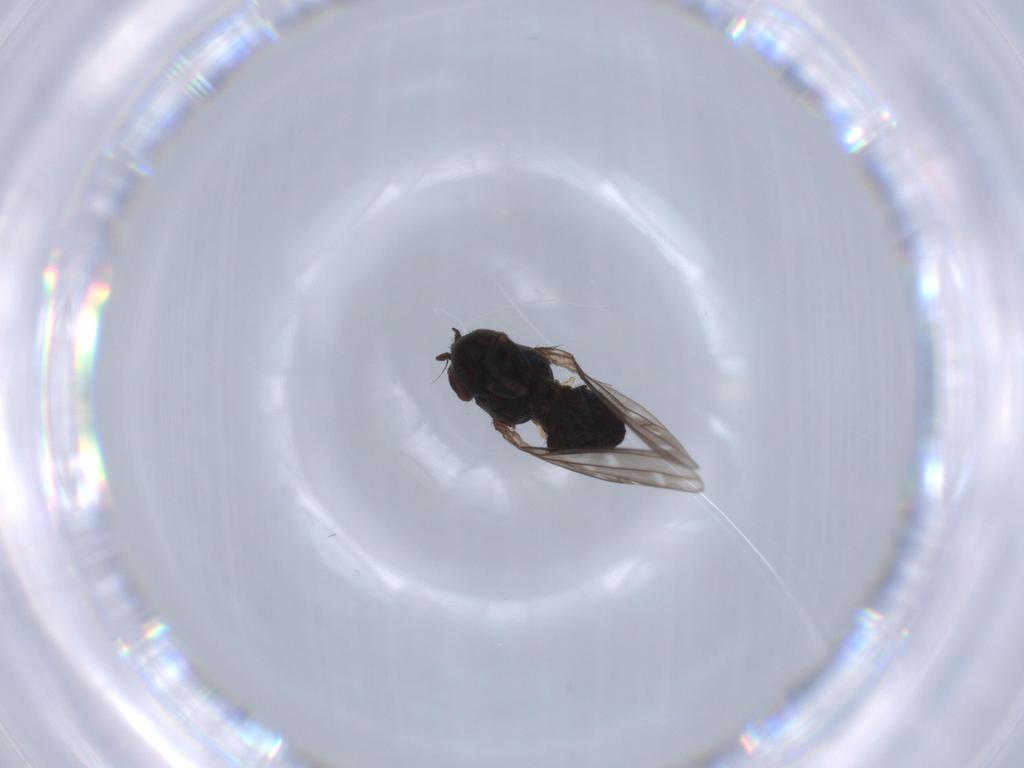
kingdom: Animalia
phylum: Arthropoda
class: Insecta
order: Diptera
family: Ephydridae
